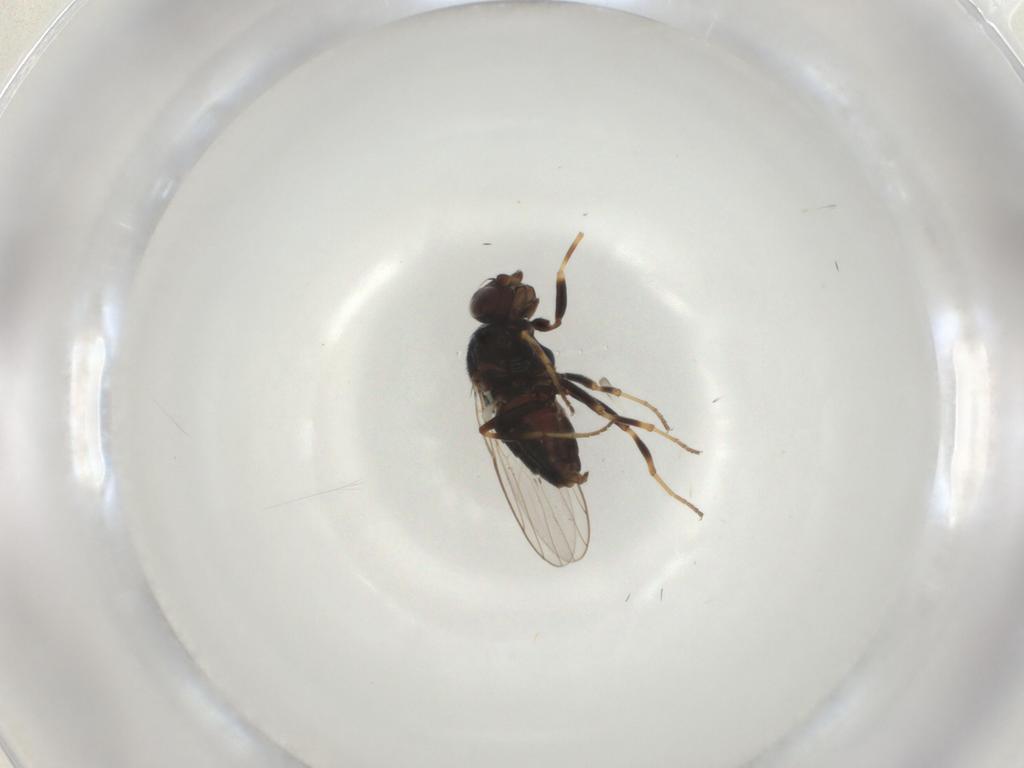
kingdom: Animalia
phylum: Arthropoda
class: Insecta
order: Diptera
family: Chloropidae
